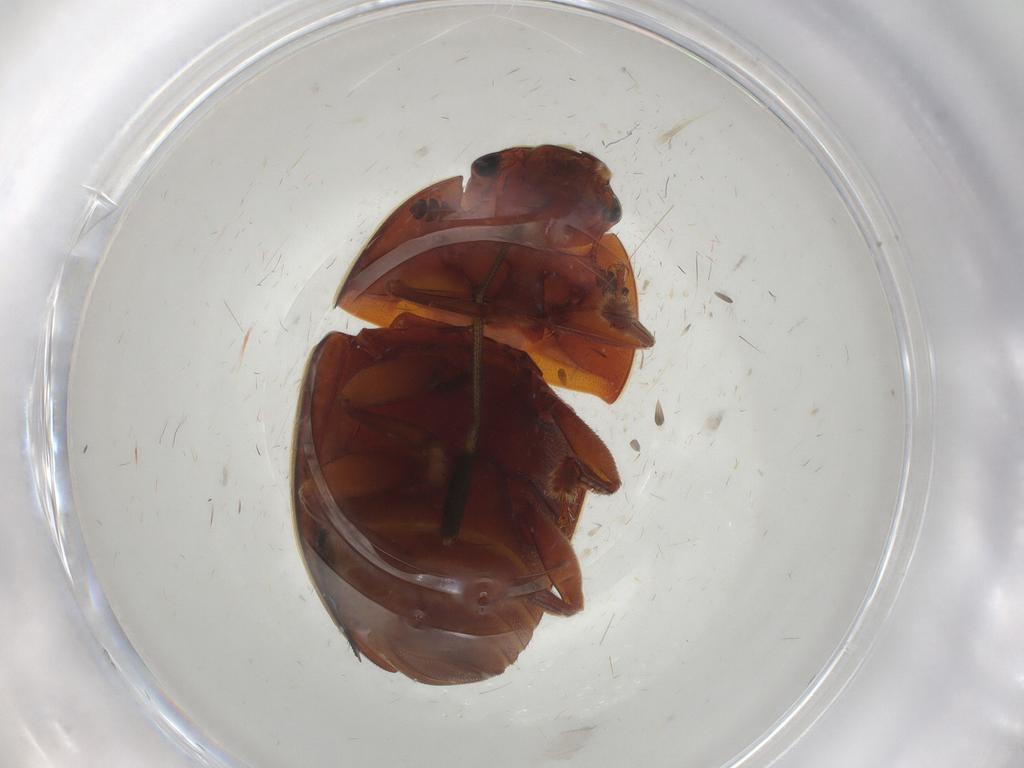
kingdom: Animalia
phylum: Arthropoda
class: Insecta
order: Coleoptera
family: Nitidulidae
